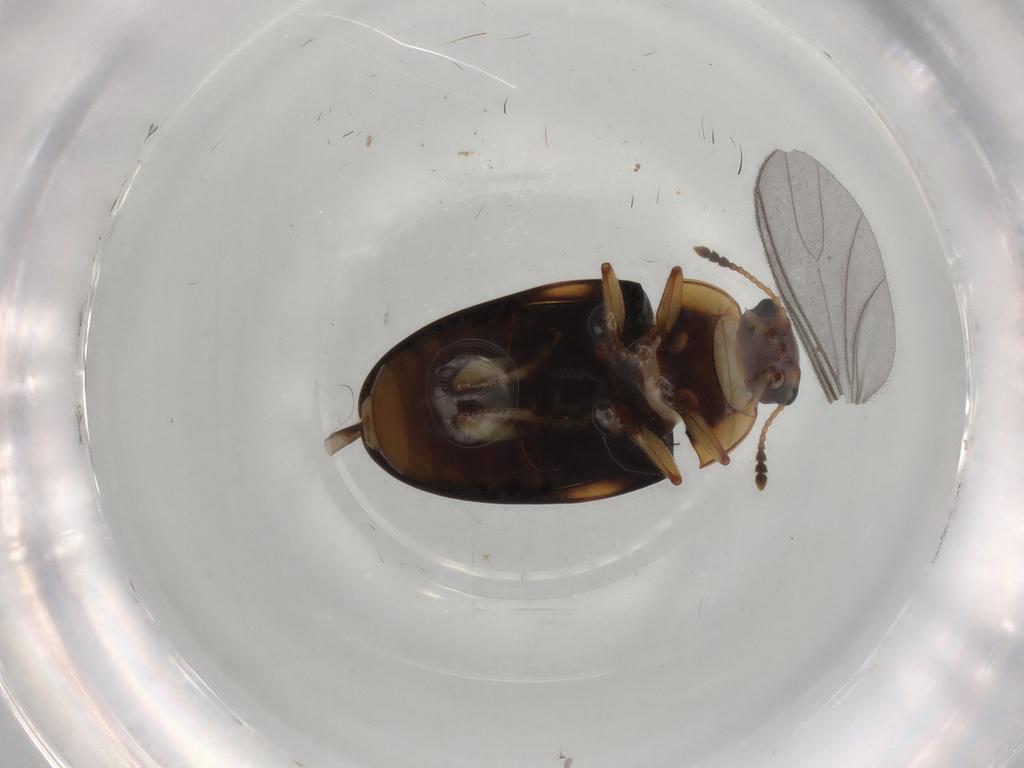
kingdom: Animalia
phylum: Arthropoda
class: Insecta
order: Coleoptera
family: Erotylidae
